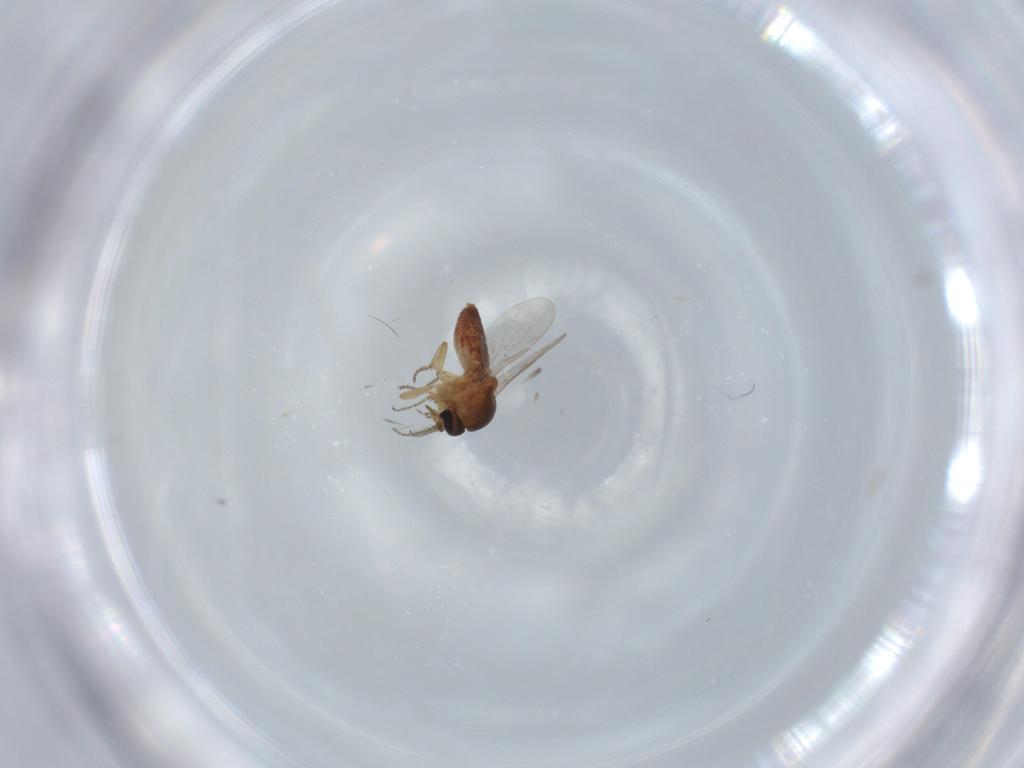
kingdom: Animalia
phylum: Arthropoda
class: Insecta
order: Diptera
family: Ceratopogonidae
